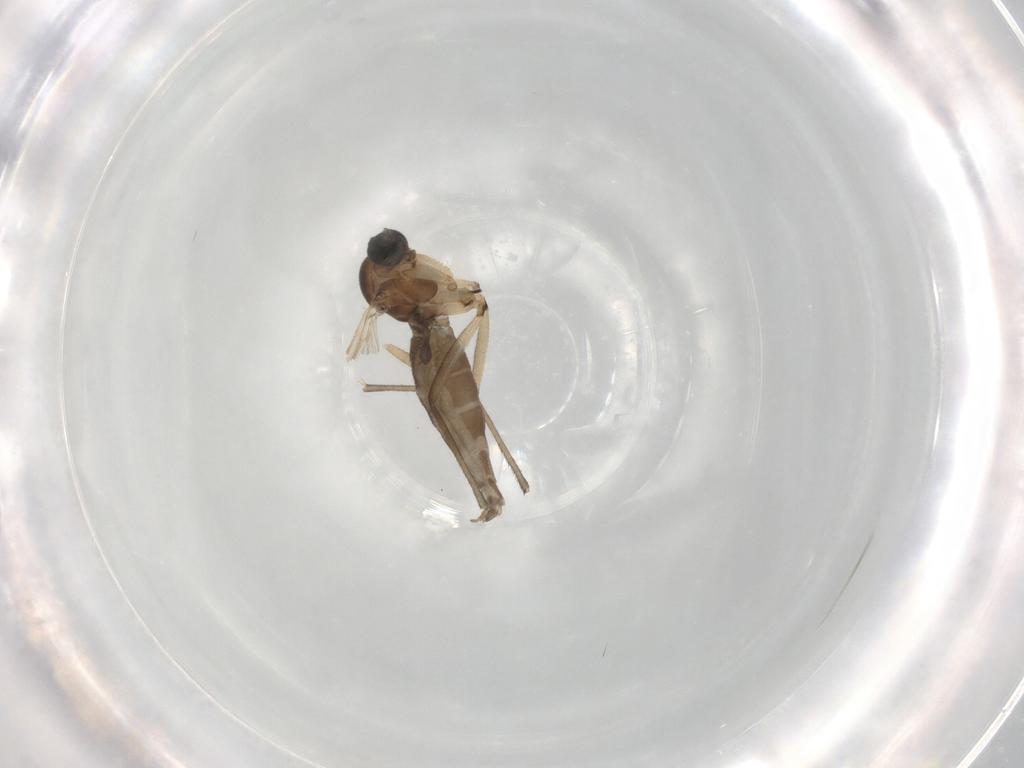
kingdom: Animalia
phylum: Arthropoda
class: Insecta
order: Diptera
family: Sciaridae
